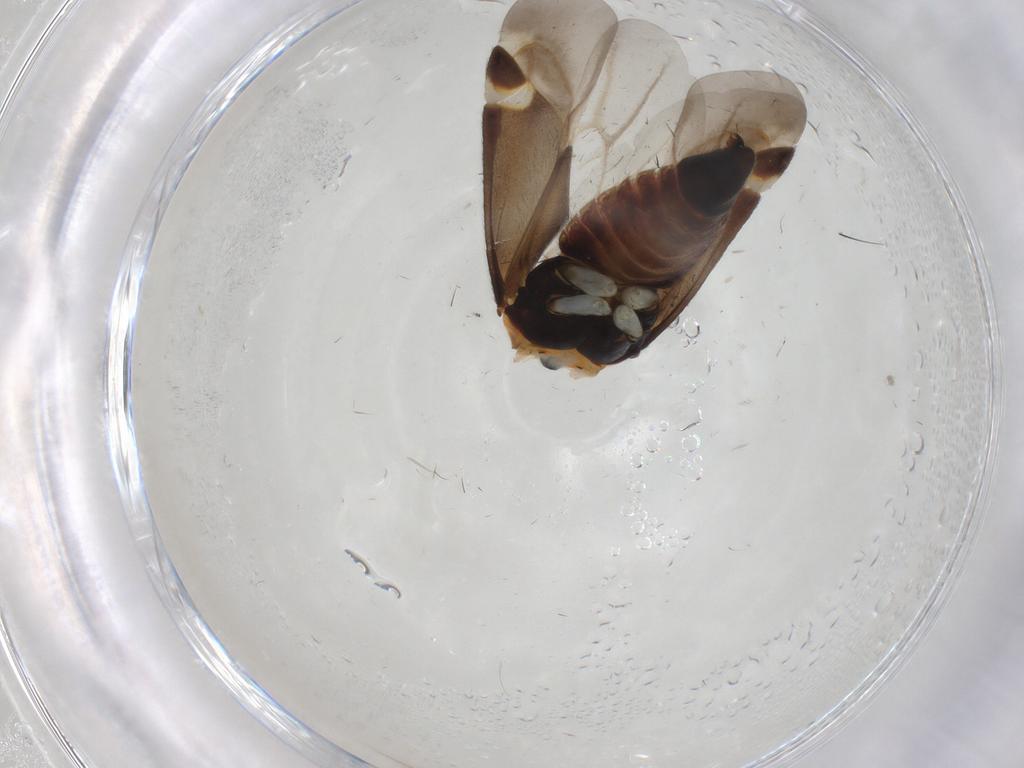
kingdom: Animalia
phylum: Arthropoda
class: Insecta
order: Hemiptera
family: Miridae
